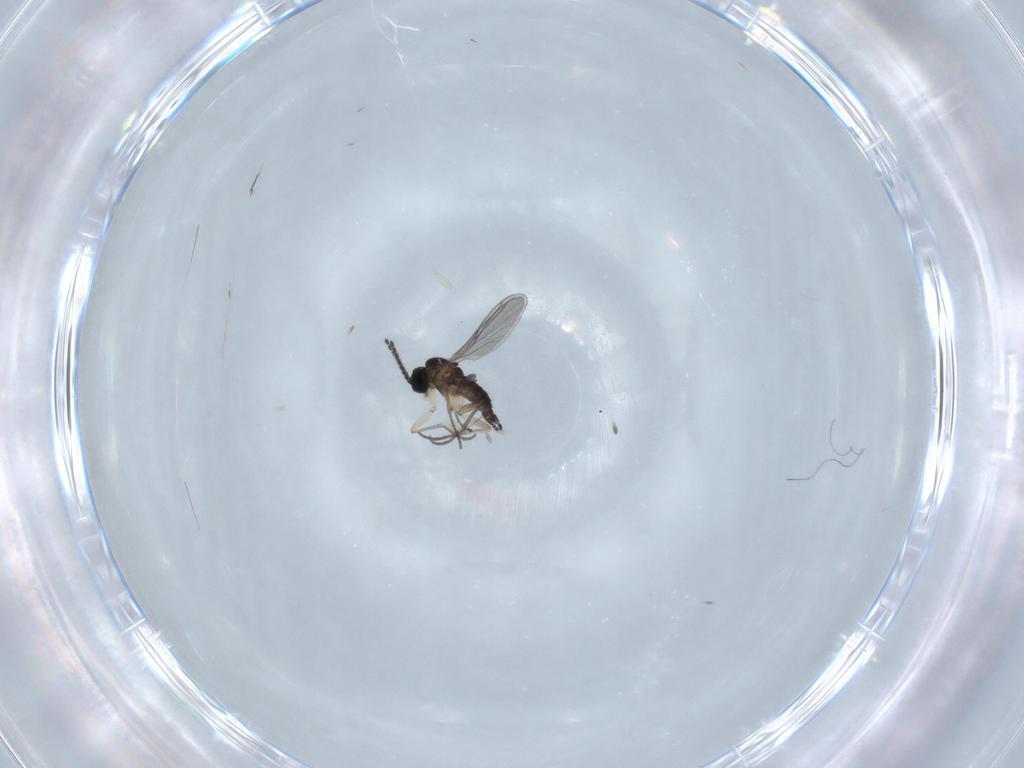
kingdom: Animalia
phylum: Arthropoda
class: Insecta
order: Diptera
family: Sciaridae
